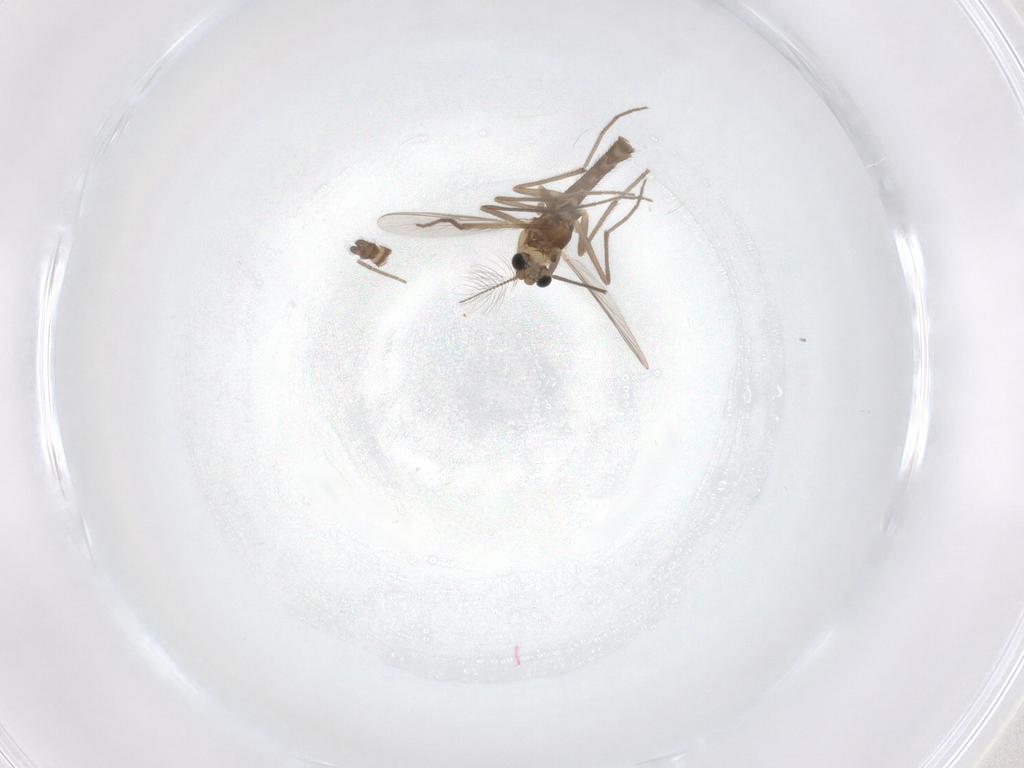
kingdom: Animalia
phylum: Arthropoda
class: Insecta
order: Diptera
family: Chironomidae
